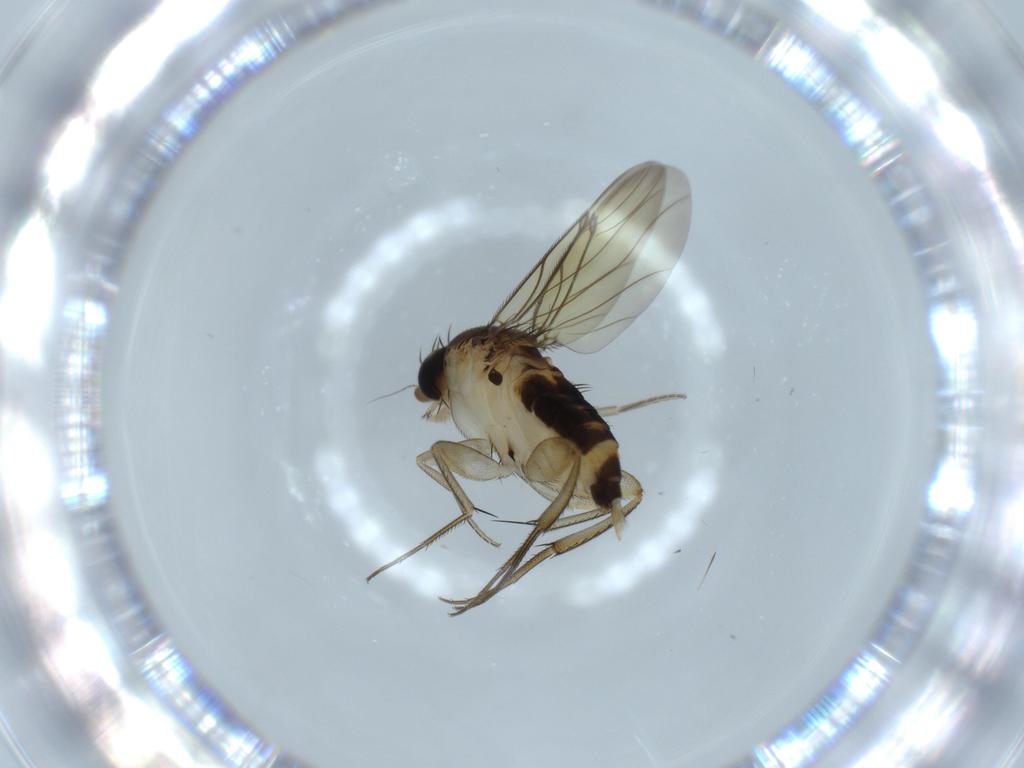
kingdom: Animalia
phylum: Arthropoda
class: Insecta
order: Diptera
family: Phoridae
